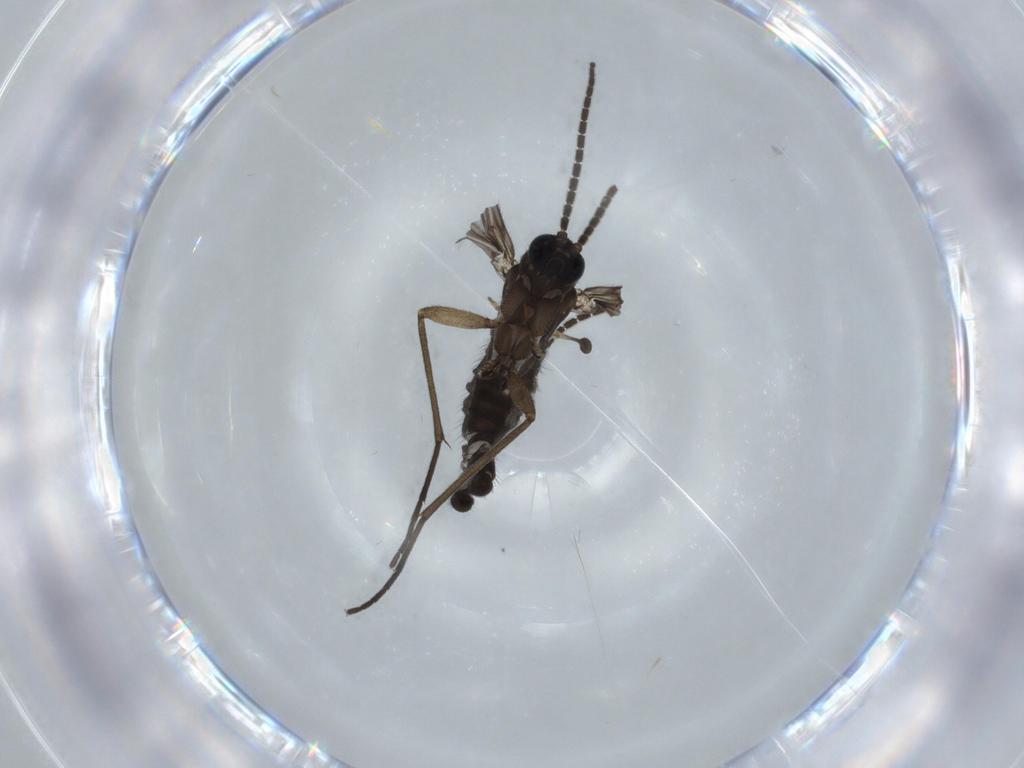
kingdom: Animalia
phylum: Arthropoda
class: Insecta
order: Diptera
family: Sciaridae
